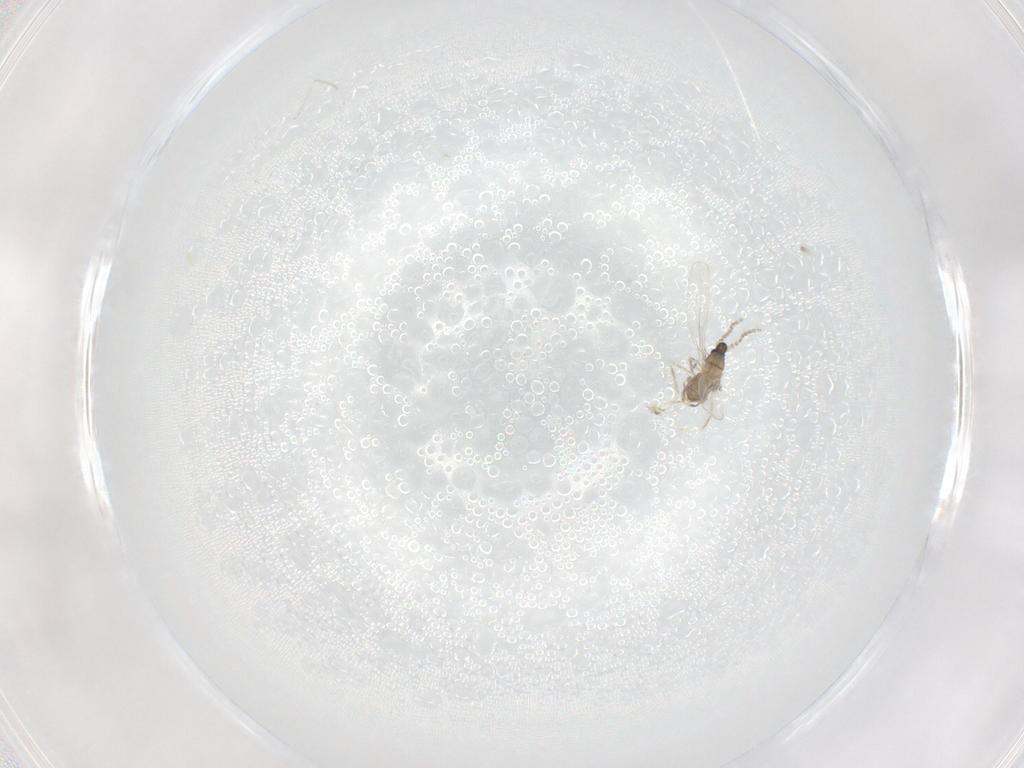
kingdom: Animalia
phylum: Arthropoda
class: Insecta
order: Diptera
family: Cecidomyiidae
